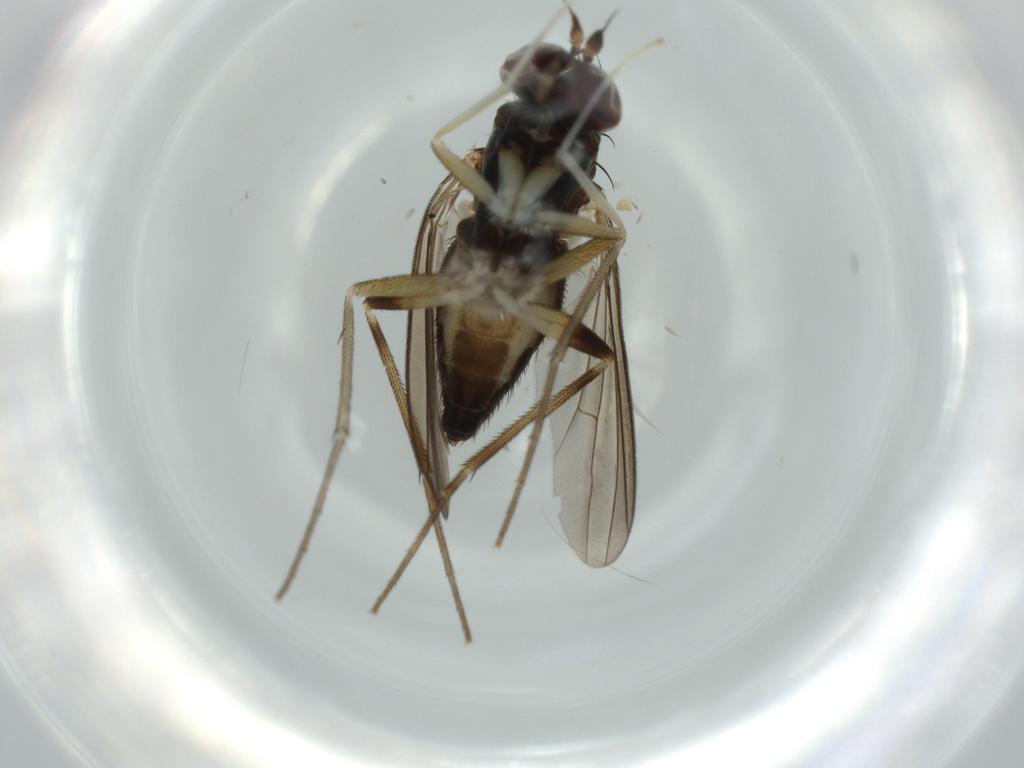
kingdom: Animalia
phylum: Arthropoda
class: Insecta
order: Diptera
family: Dolichopodidae
